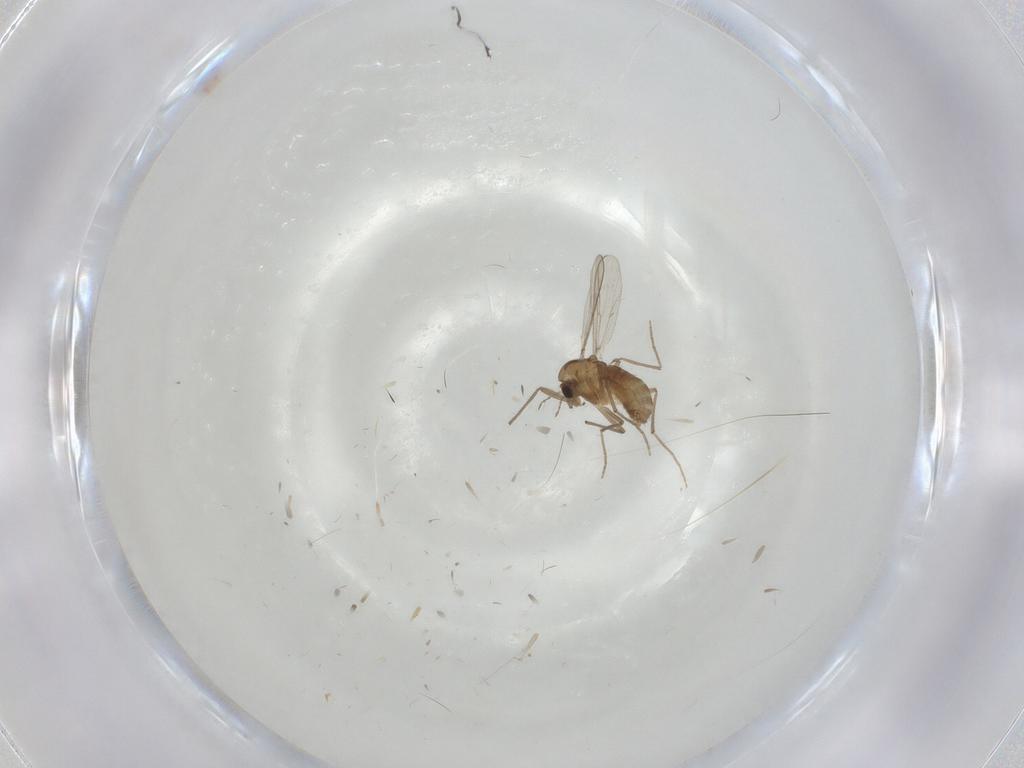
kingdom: Animalia
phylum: Arthropoda
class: Insecta
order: Diptera
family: Chironomidae
